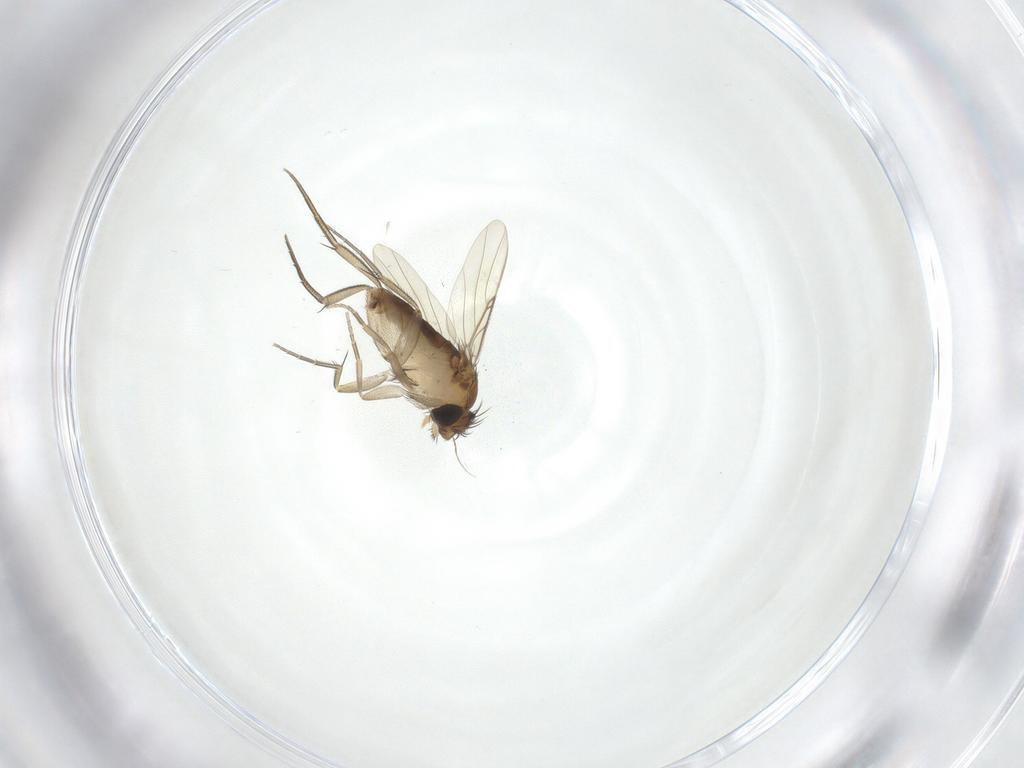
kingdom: Animalia
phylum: Arthropoda
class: Insecta
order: Diptera
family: Phoridae
